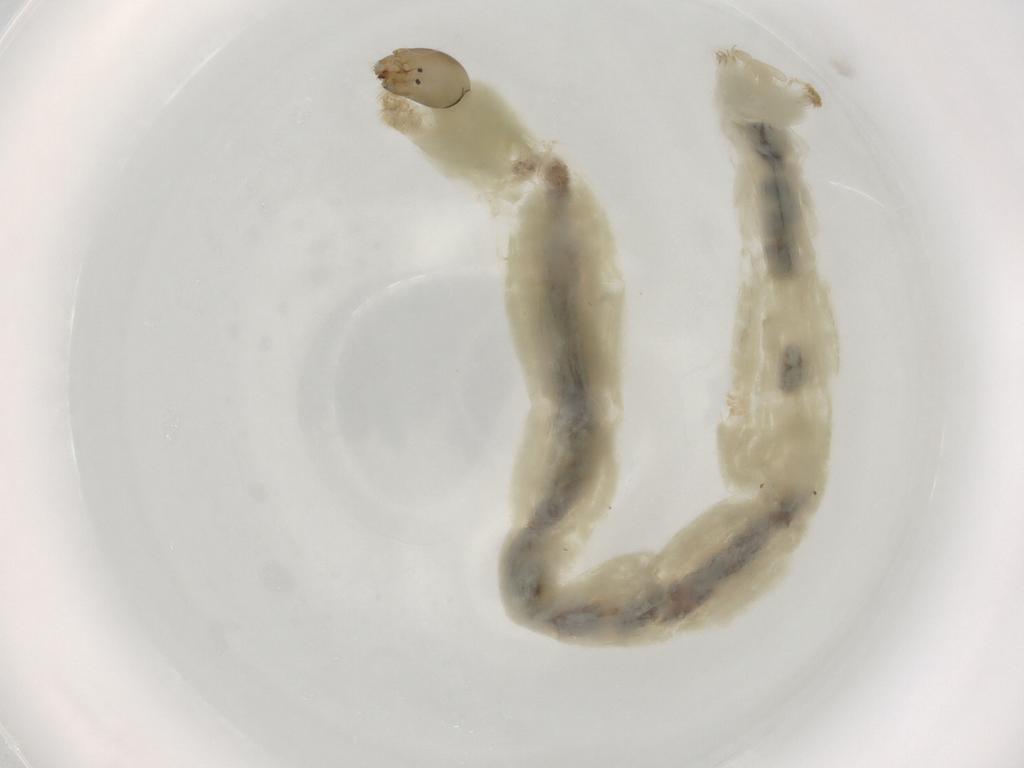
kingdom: Animalia
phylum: Arthropoda
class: Insecta
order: Diptera
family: Chironomidae
